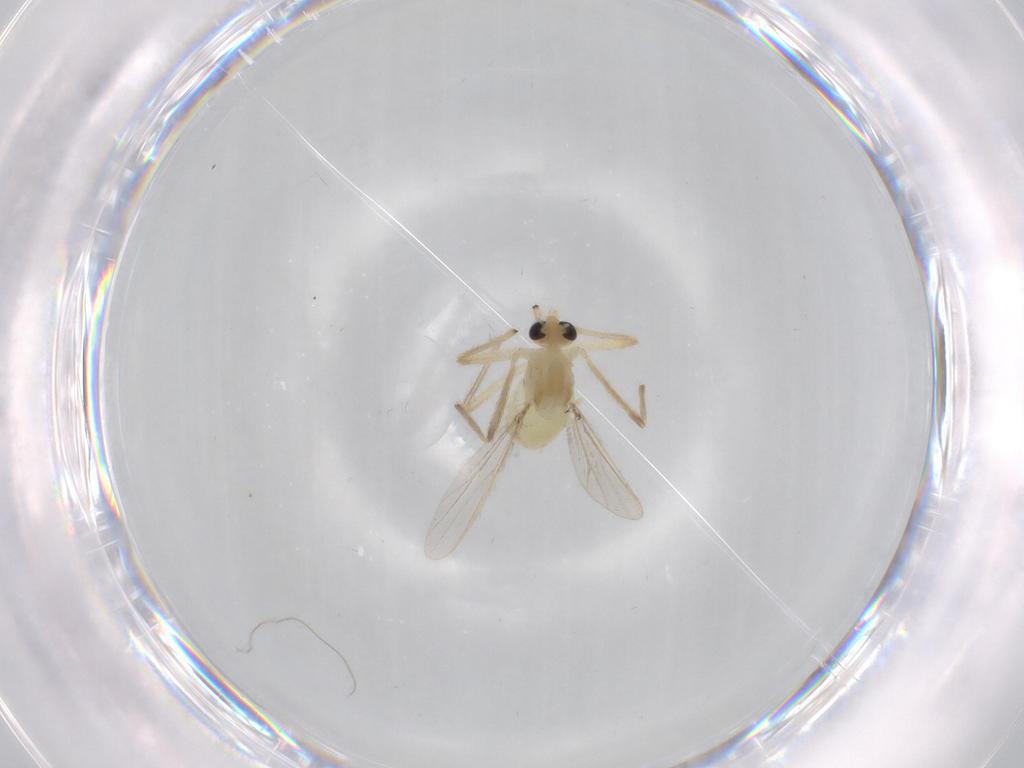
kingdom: Animalia
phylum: Arthropoda
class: Insecta
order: Diptera
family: Chironomidae
